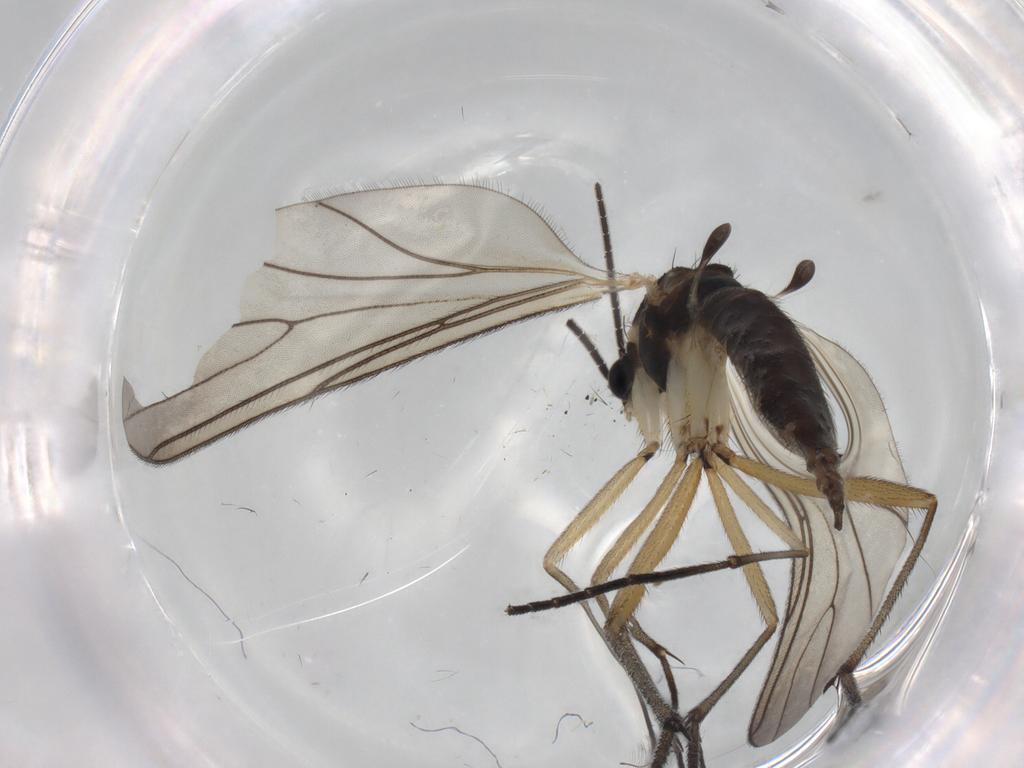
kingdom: Animalia
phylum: Arthropoda
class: Insecta
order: Diptera
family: Sciaridae
